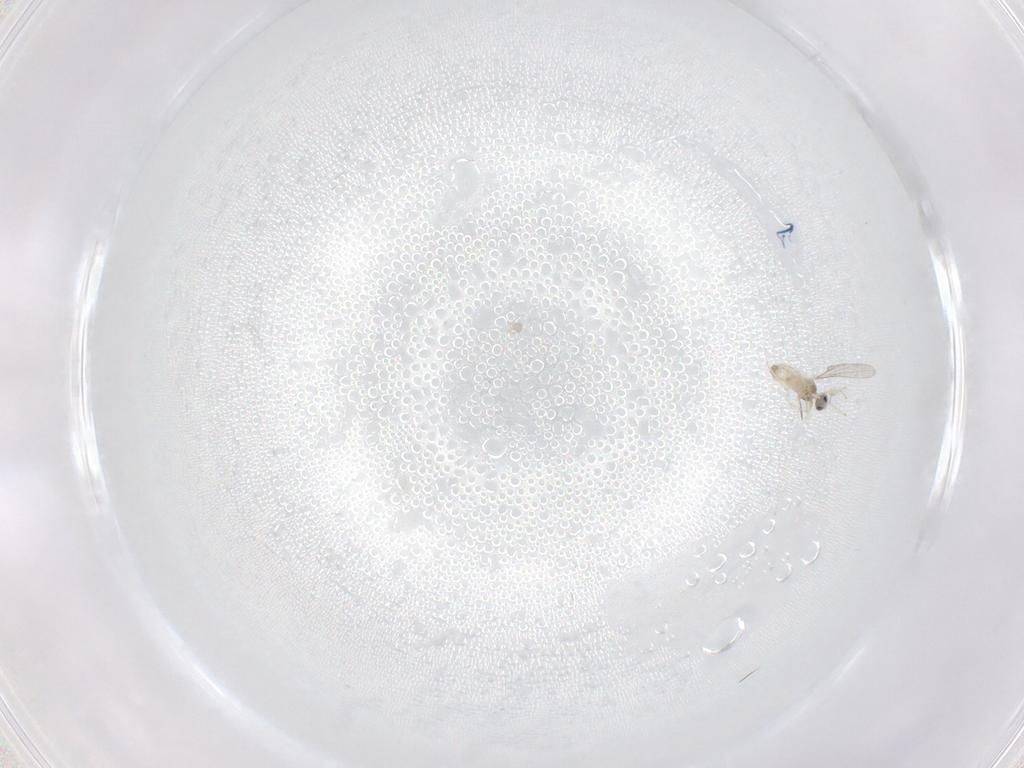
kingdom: Animalia
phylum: Arthropoda
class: Insecta
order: Diptera
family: Cecidomyiidae
